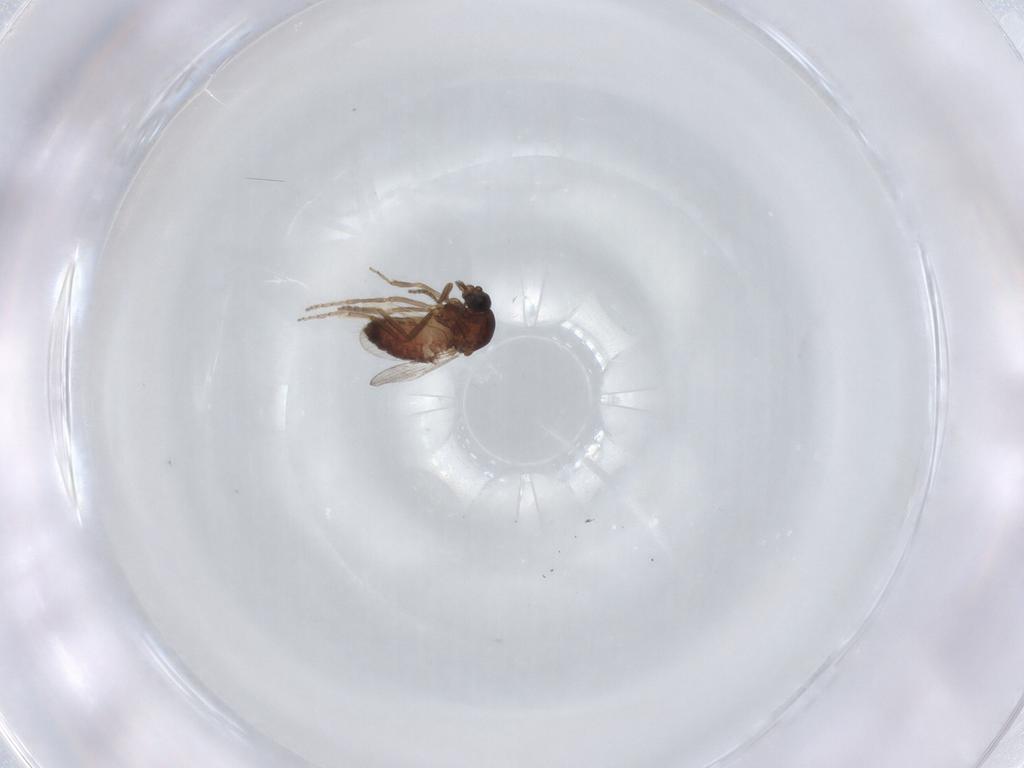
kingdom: Animalia
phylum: Arthropoda
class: Insecta
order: Diptera
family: Ceratopogonidae
